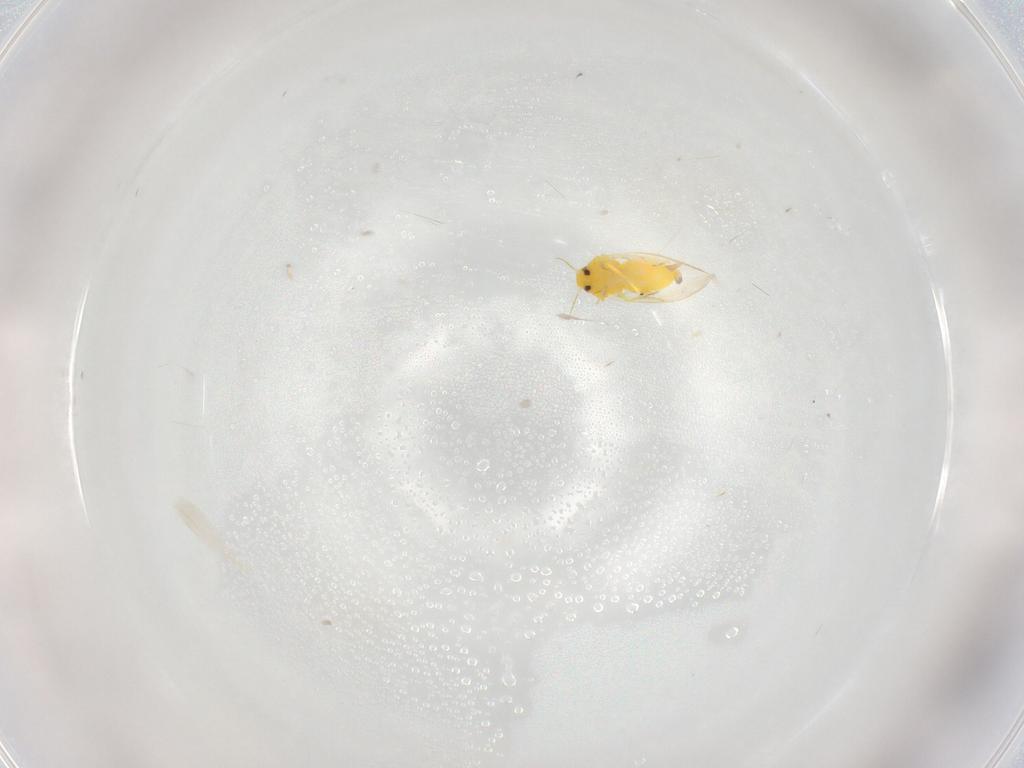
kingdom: Animalia
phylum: Arthropoda
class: Insecta
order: Hemiptera
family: Aleyrodidae
